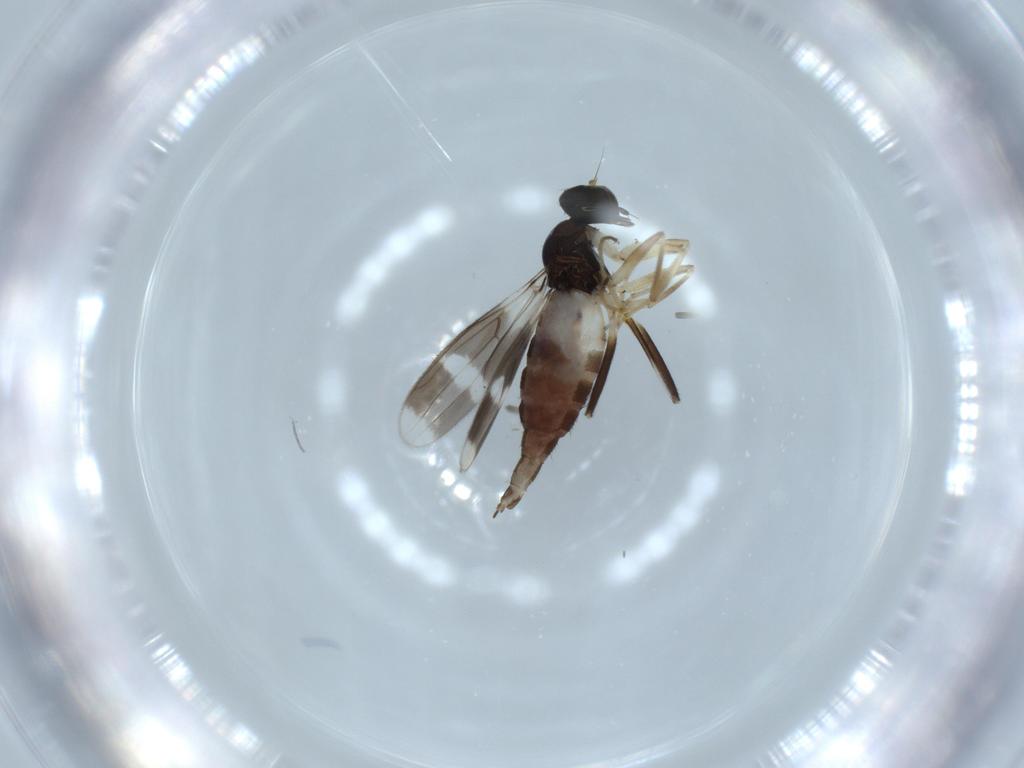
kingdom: Animalia
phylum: Arthropoda
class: Insecta
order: Diptera
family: Hybotidae
